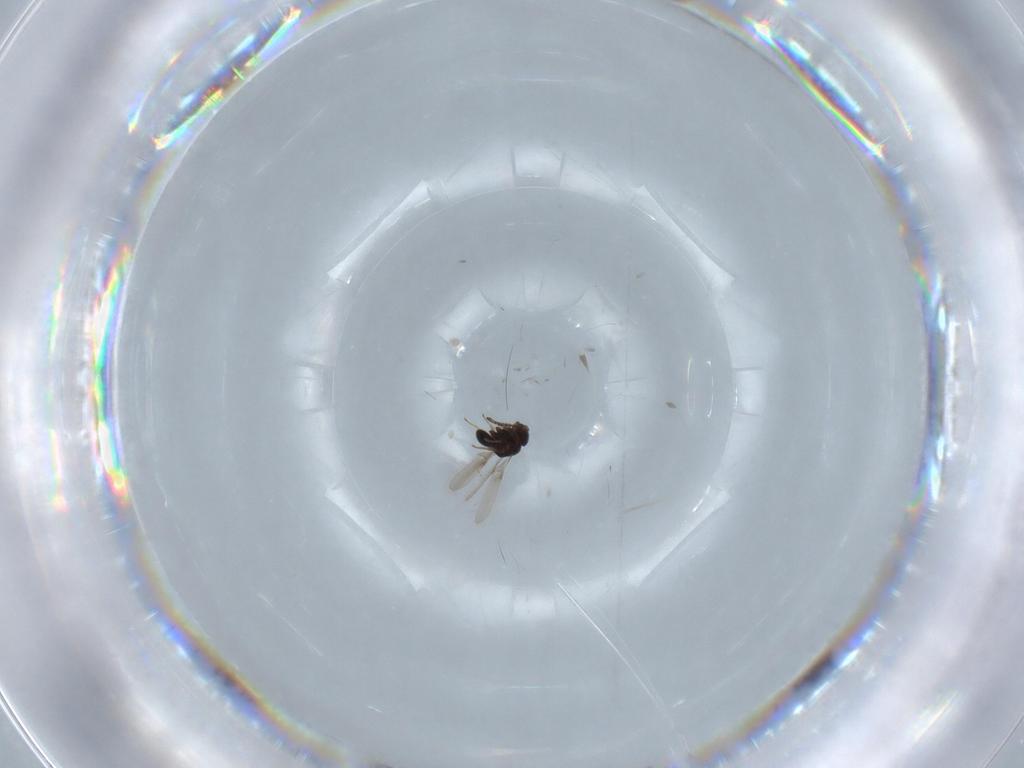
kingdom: Animalia
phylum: Arthropoda
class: Insecta
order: Hymenoptera
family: Scelionidae
